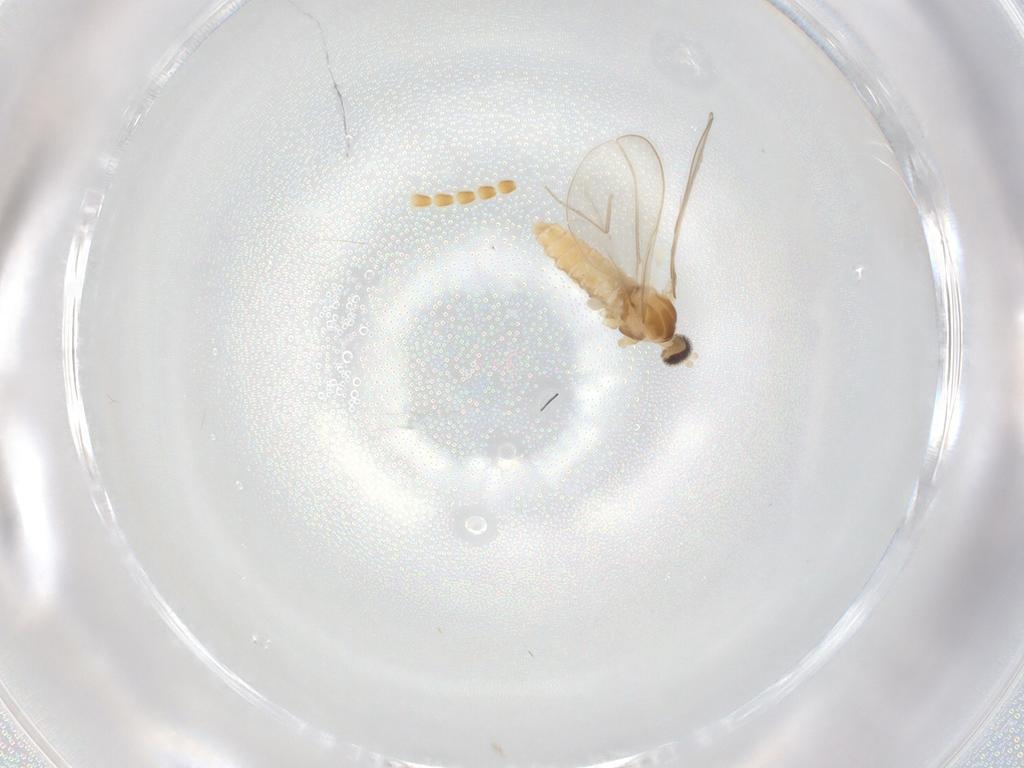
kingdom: Animalia
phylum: Arthropoda
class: Insecta
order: Diptera
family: Cecidomyiidae
